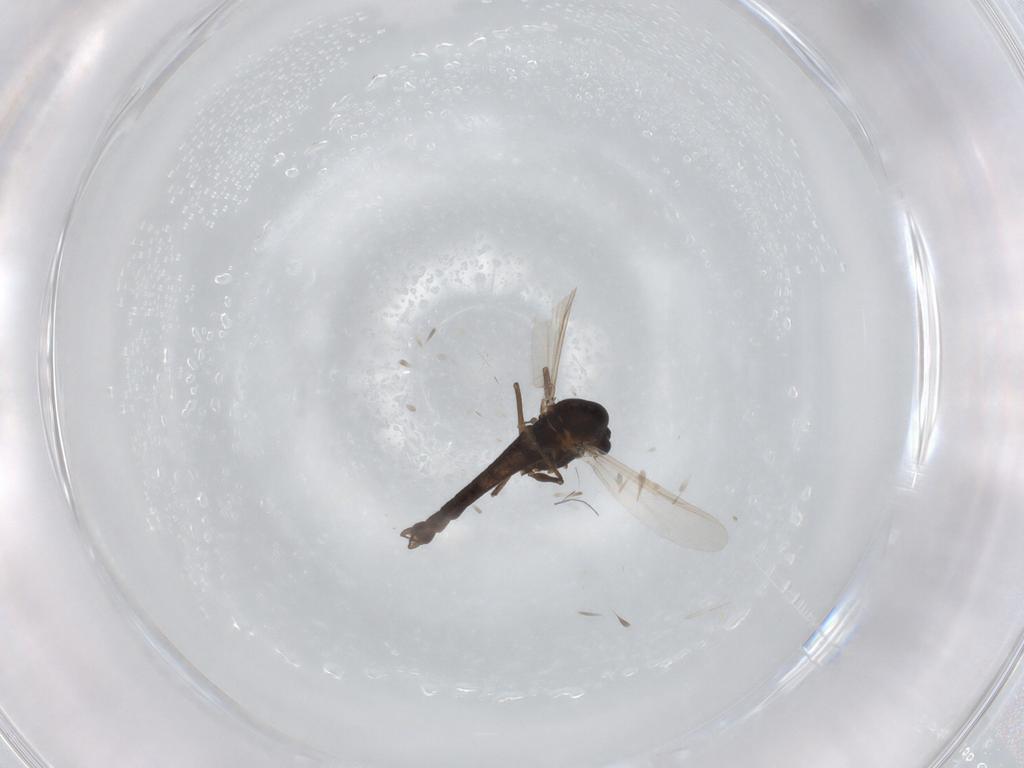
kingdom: Animalia
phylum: Arthropoda
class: Insecta
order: Diptera
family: Chironomidae
